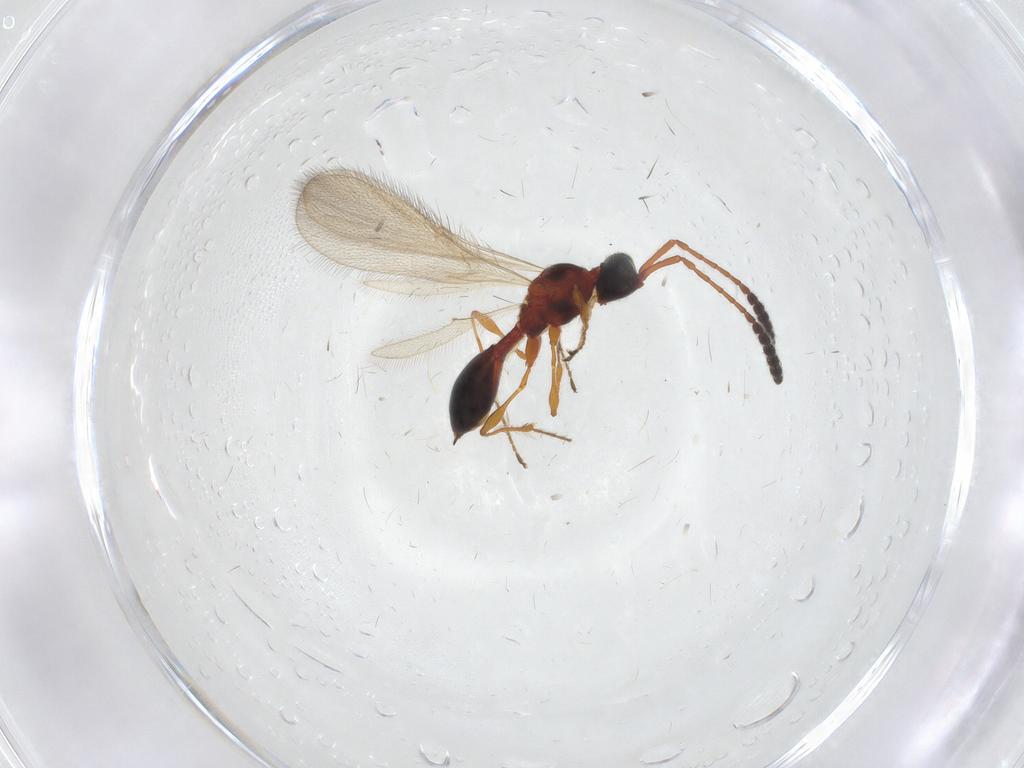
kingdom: Animalia
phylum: Arthropoda
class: Insecta
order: Hymenoptera
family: Diapriidae
